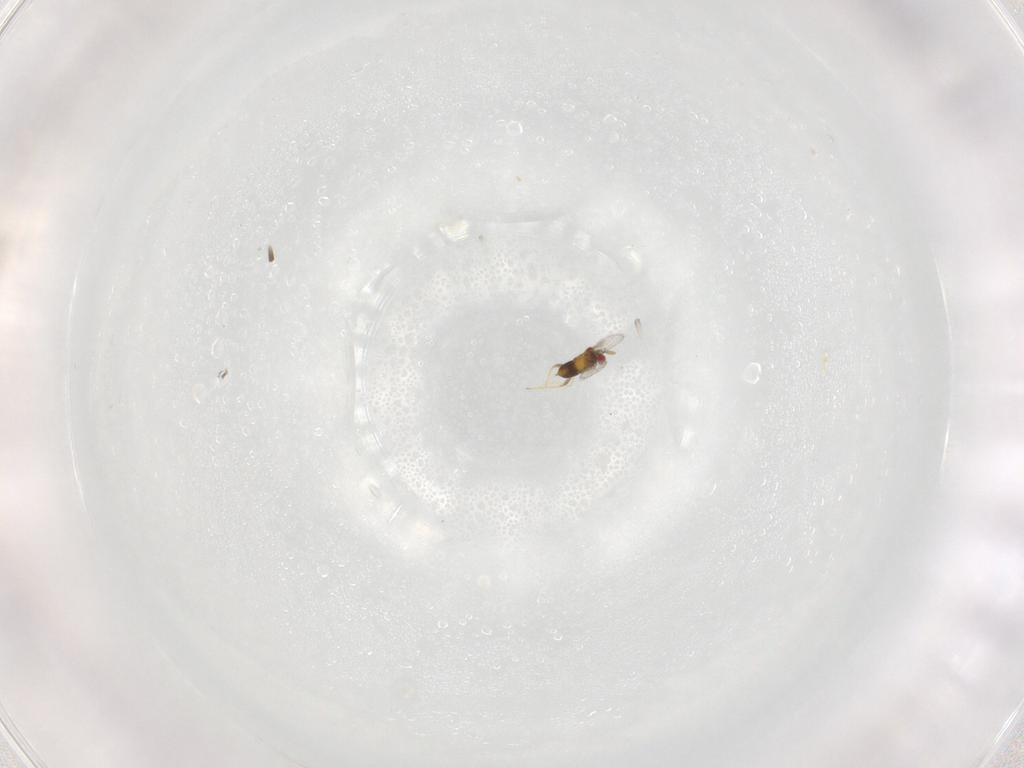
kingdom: Animalia
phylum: Arthropoda
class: Insecta
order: Hymenoptera
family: Trichogrammatidae
